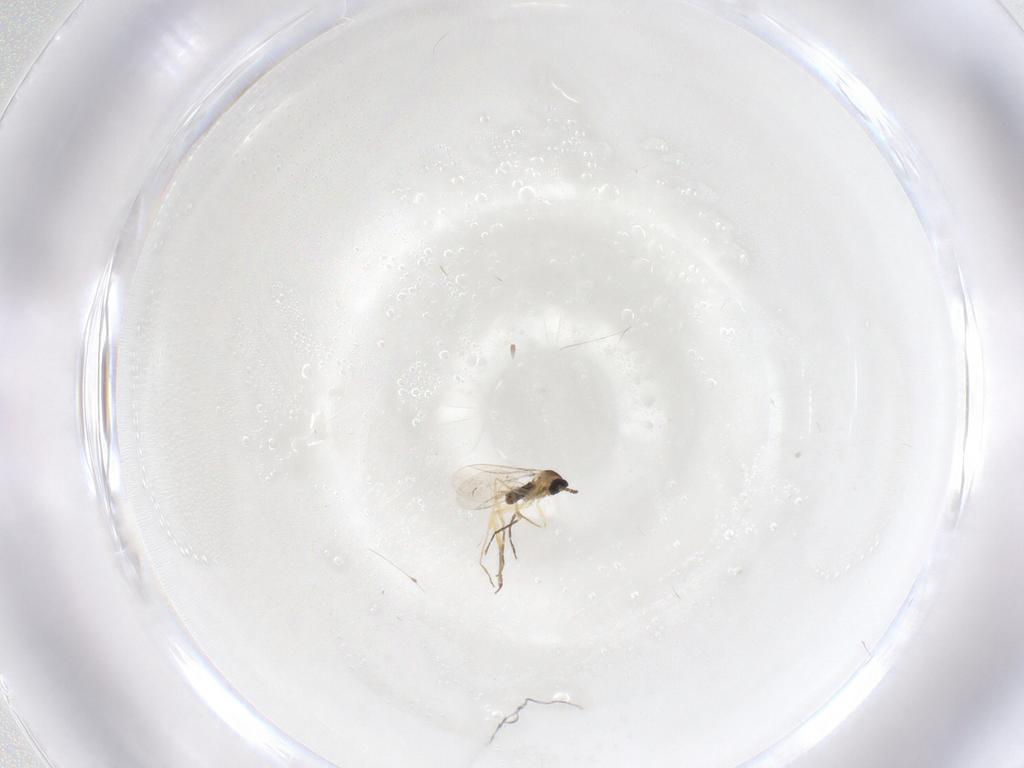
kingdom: Animalia
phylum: Arthropoda
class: Insecta
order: Diptera
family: Cecidomyiidae
